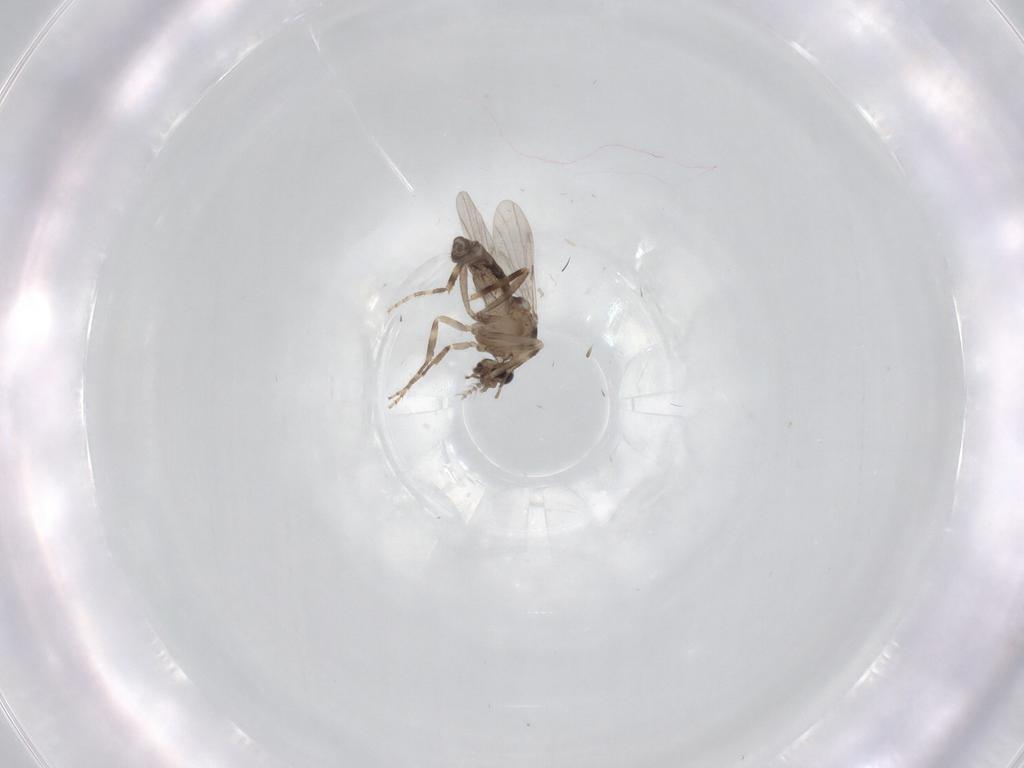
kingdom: Animalia
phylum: Arthropoda
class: Insecta
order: Diptera
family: Ceratopogonidae
